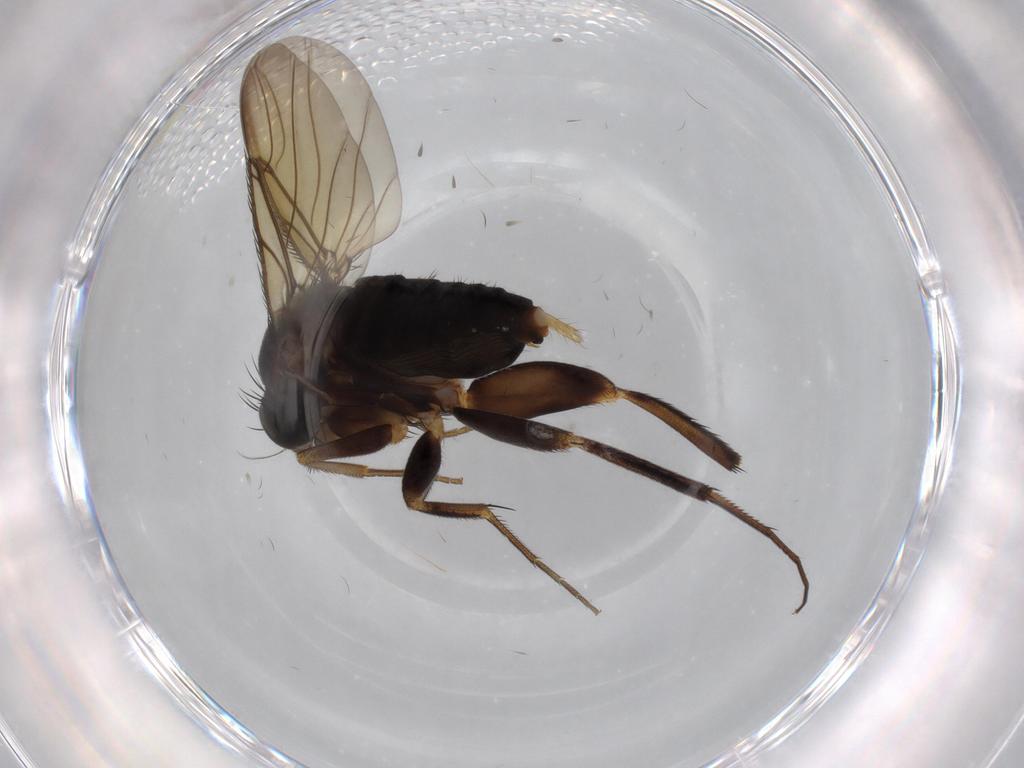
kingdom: Animalia
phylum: Arthropoda
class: Insecta
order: Diptera
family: Phoridae
